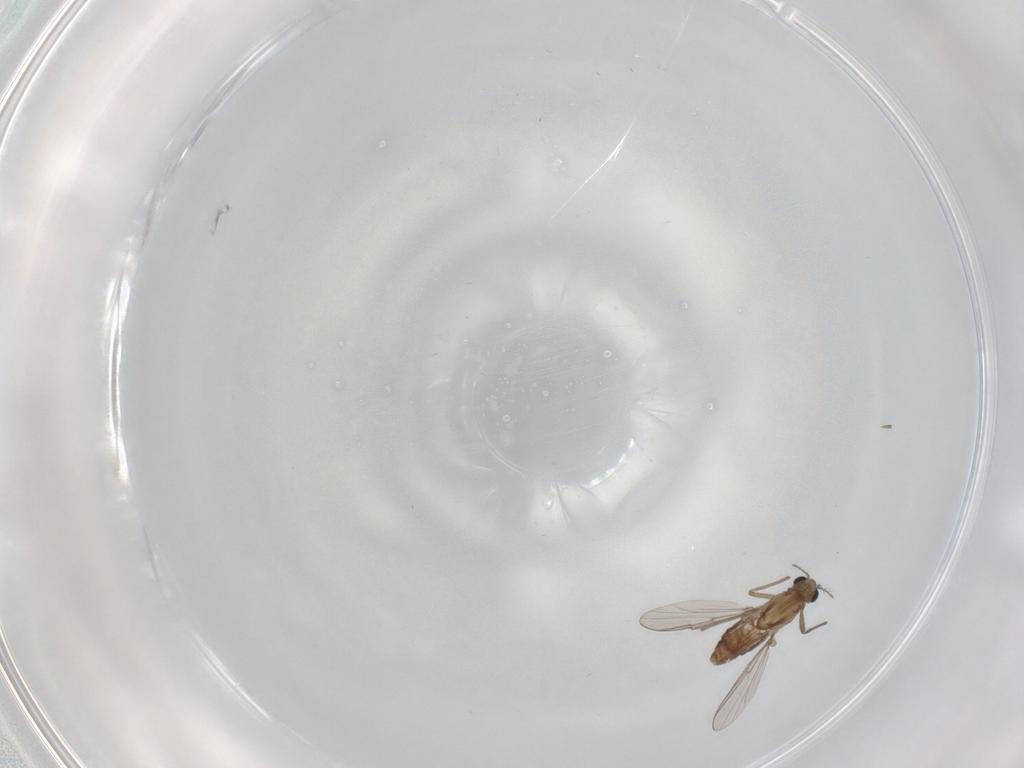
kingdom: Animalia
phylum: Arthropoda
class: Insecta
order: Diptera
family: Chironomidae
